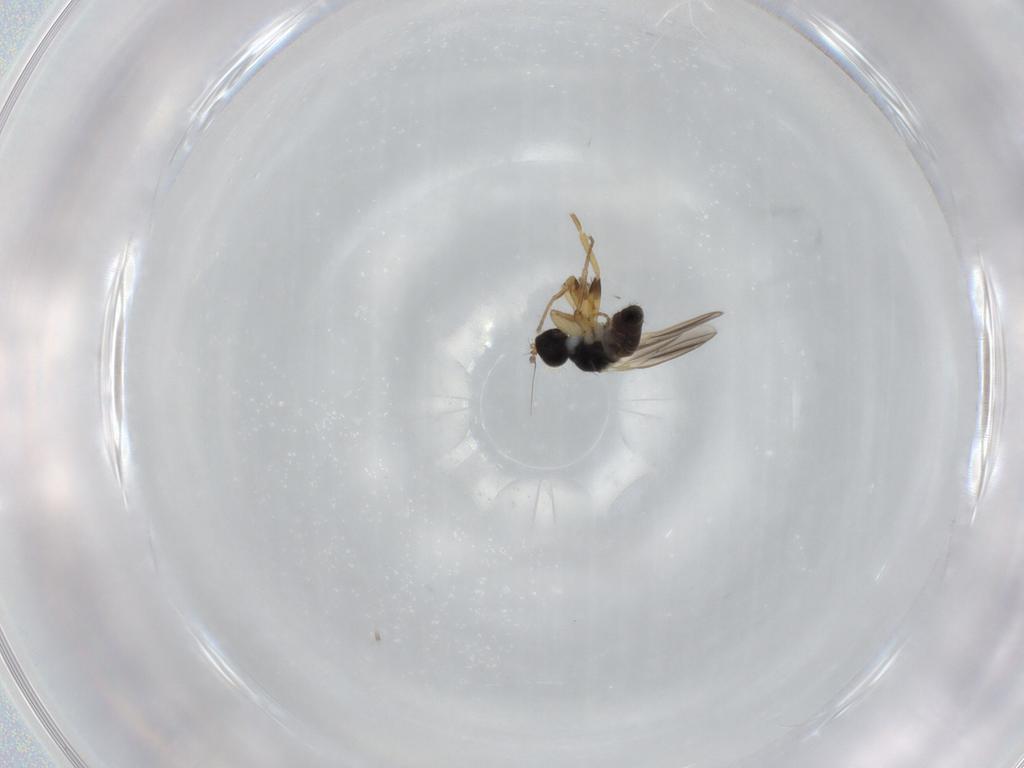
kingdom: Animalia
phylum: Arthropoda
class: Insecta
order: Diptera
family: Hybotidae
